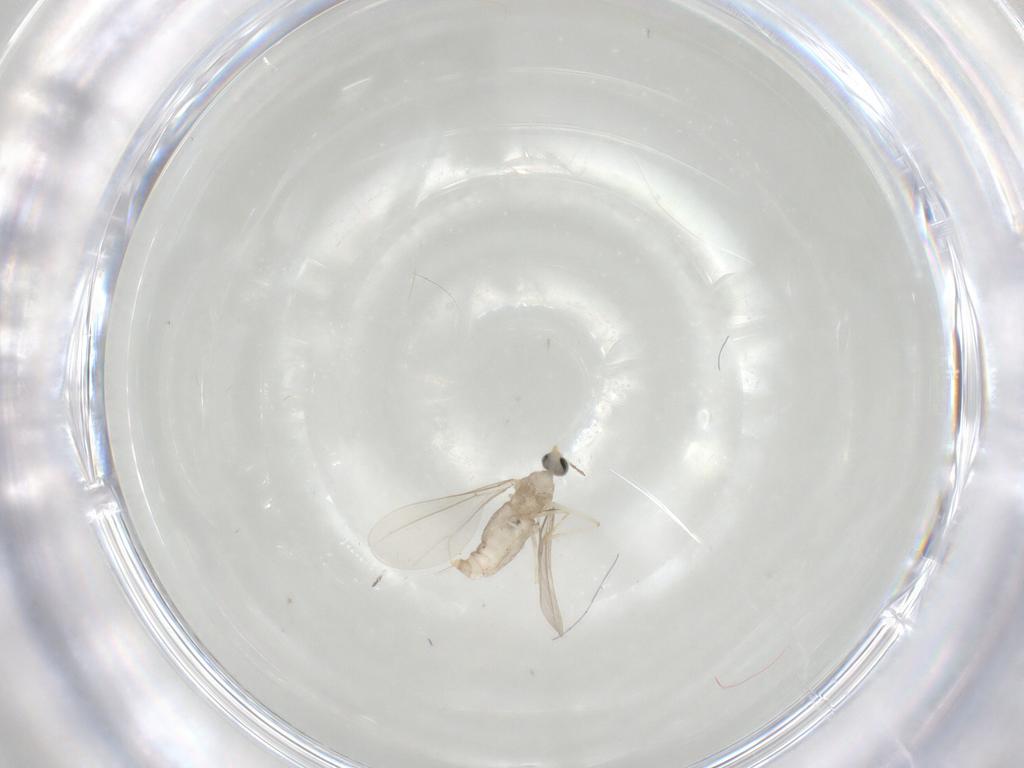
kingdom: Animalia
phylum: Arthropoda
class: Insecta
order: Diptera
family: Cecidomyiidae
